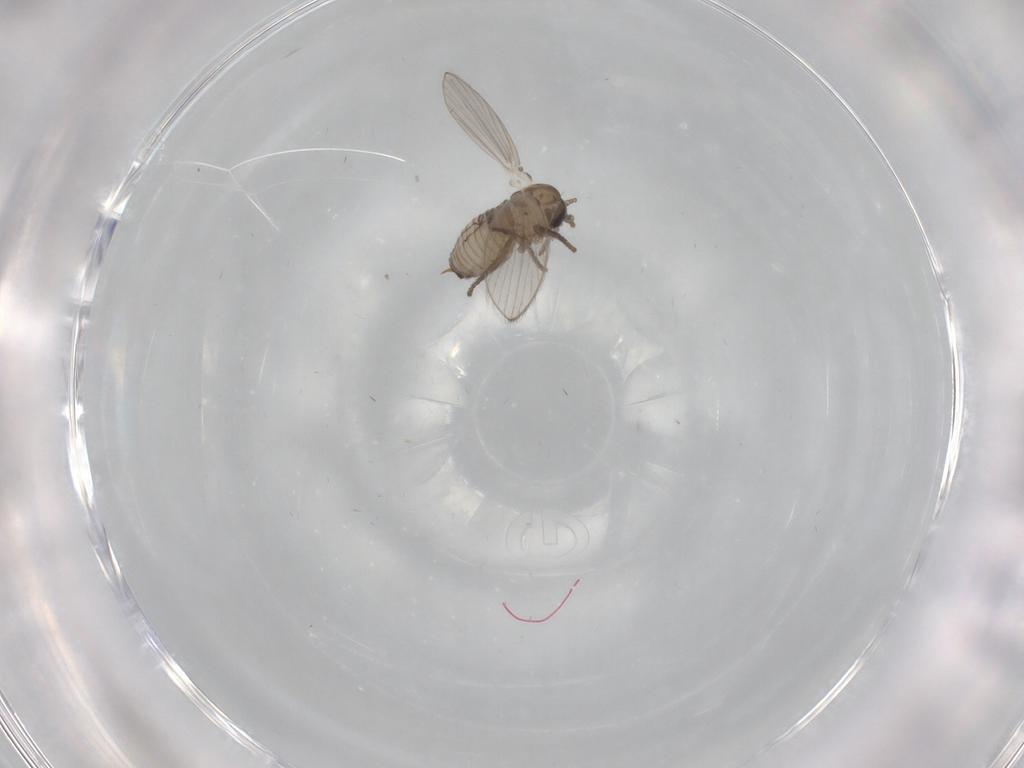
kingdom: Animalia
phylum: Arthropoda
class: Insecta
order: Diptera
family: Psychodidae
